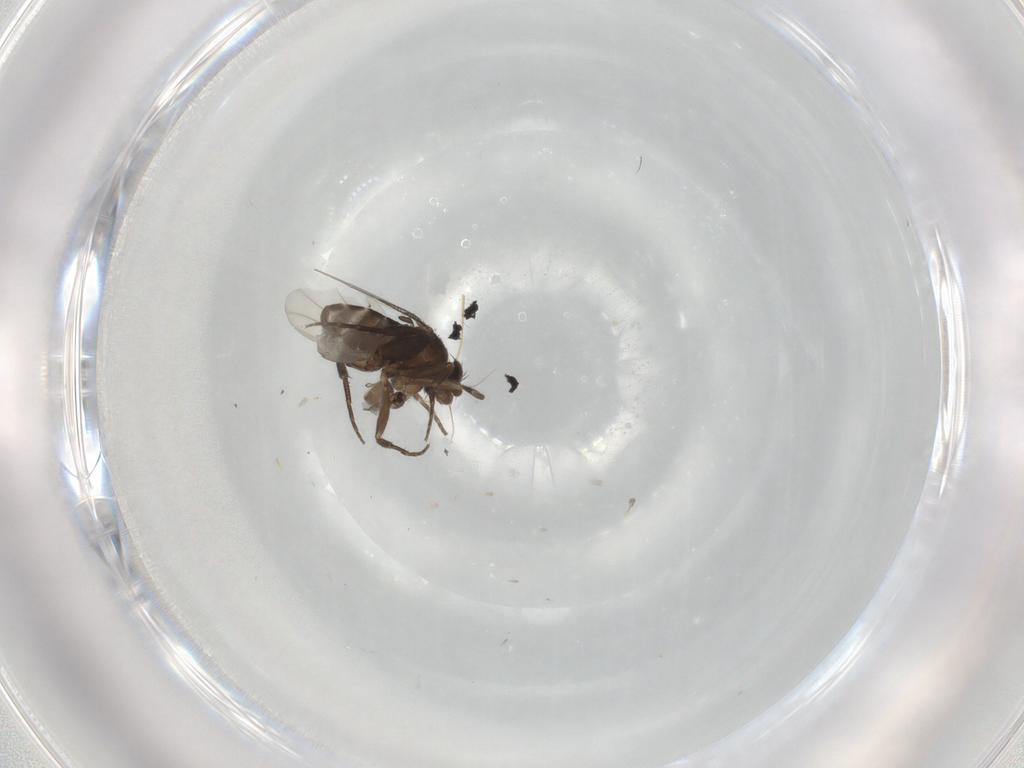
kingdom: Animalia
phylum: Arthropoda
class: Insecta
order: Diptera
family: Phoridae
